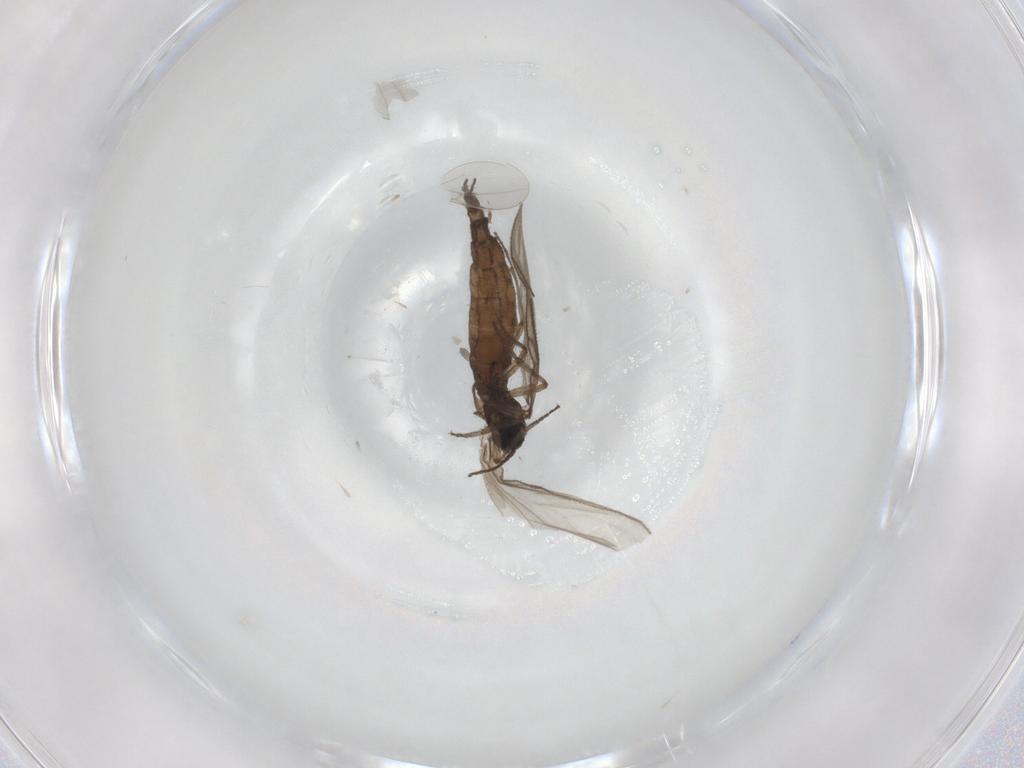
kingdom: Animalia
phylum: Arthropoda
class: Insecta
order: Diptera
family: Sciaridae
